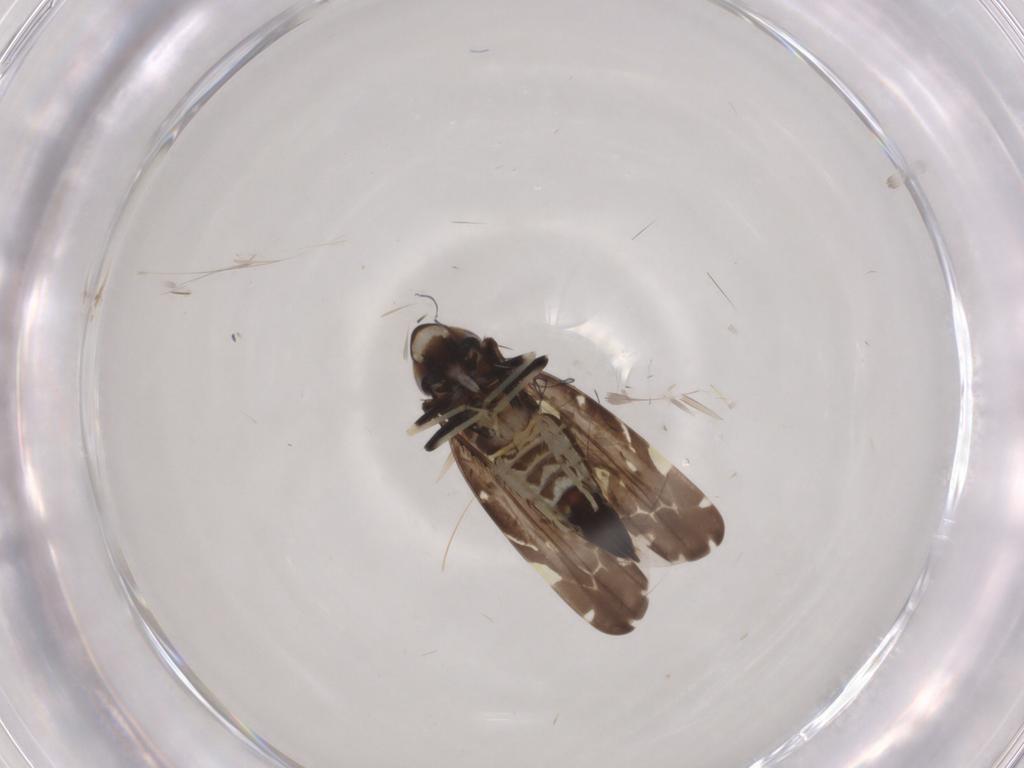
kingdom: Animalia
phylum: Arthropoda
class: Insecta
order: Hemiptera
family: Cicadellidae
